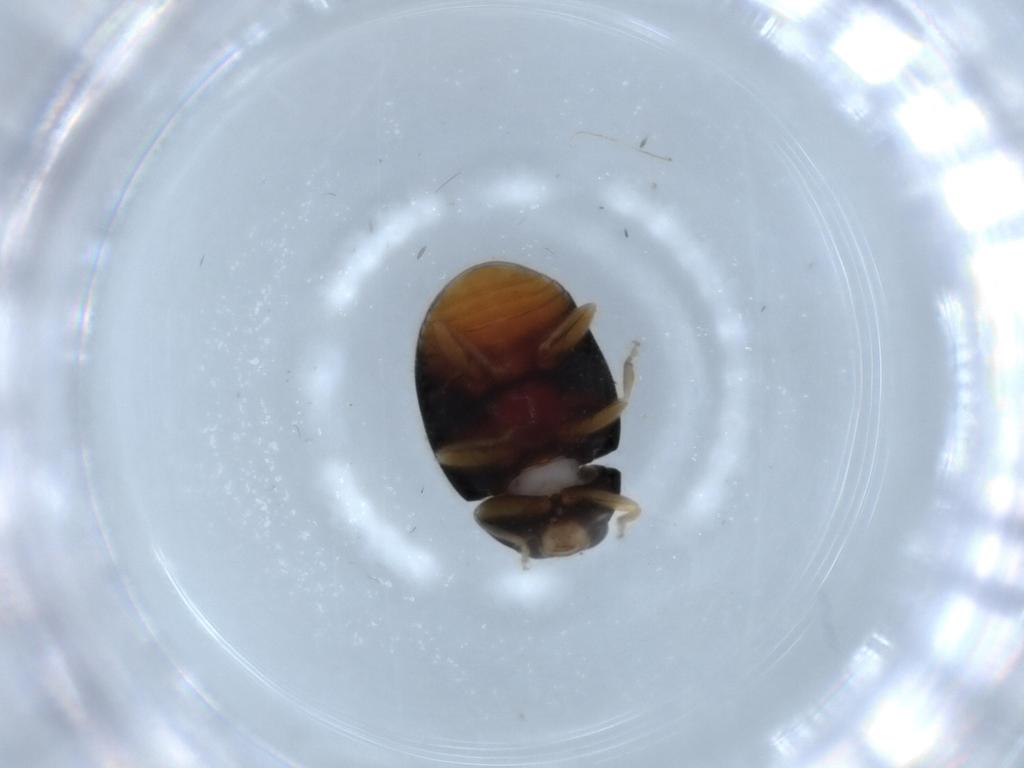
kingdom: Animalia
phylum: Arthropoda
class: Insecta
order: Coleoptera
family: Coccinellidae
